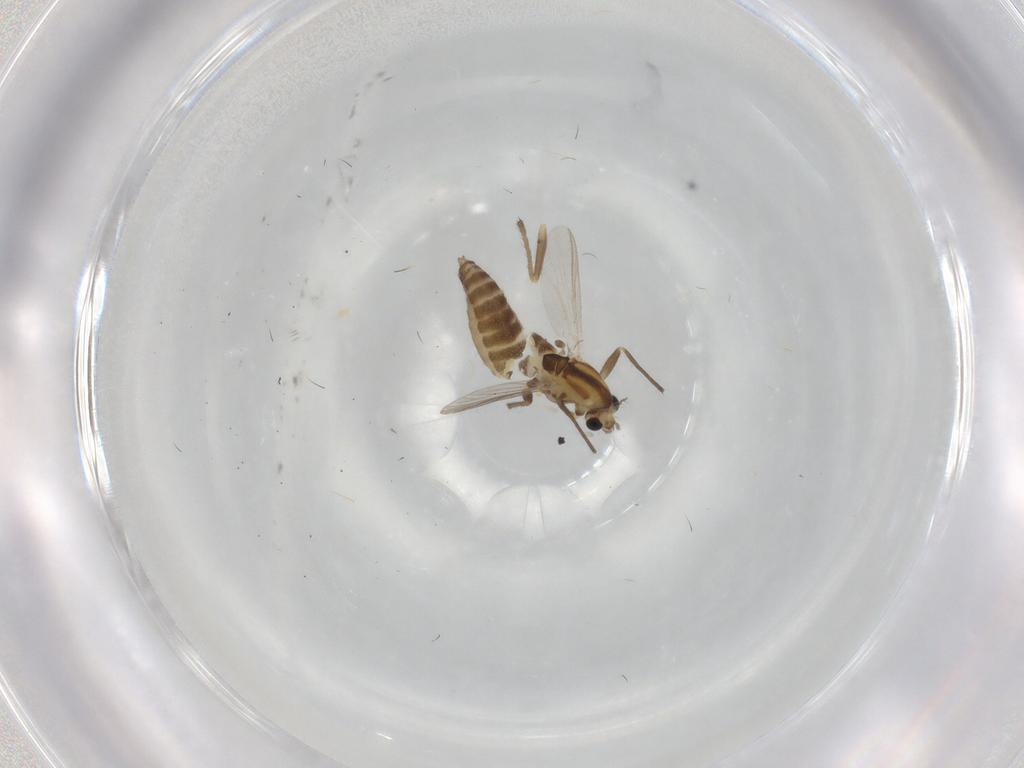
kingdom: Animalia
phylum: Arthropoda
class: Insecta
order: Diptera
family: Chironomidae
